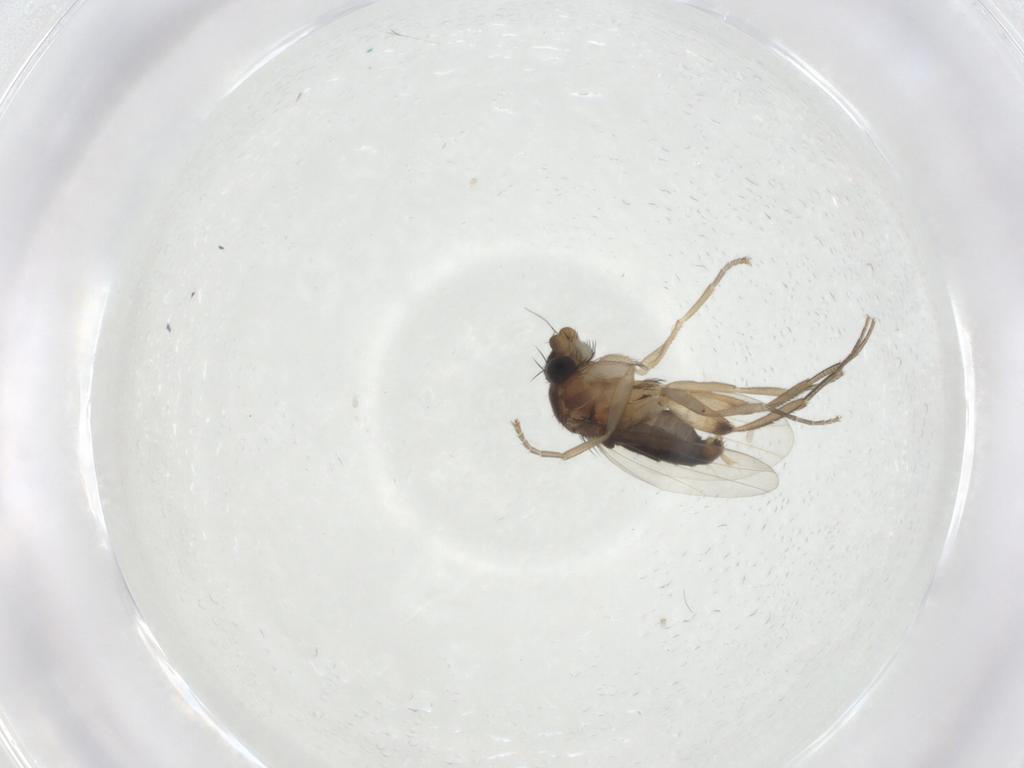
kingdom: Animalia
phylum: Arthropoda
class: Insecta
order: Diptera
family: Phoridae
